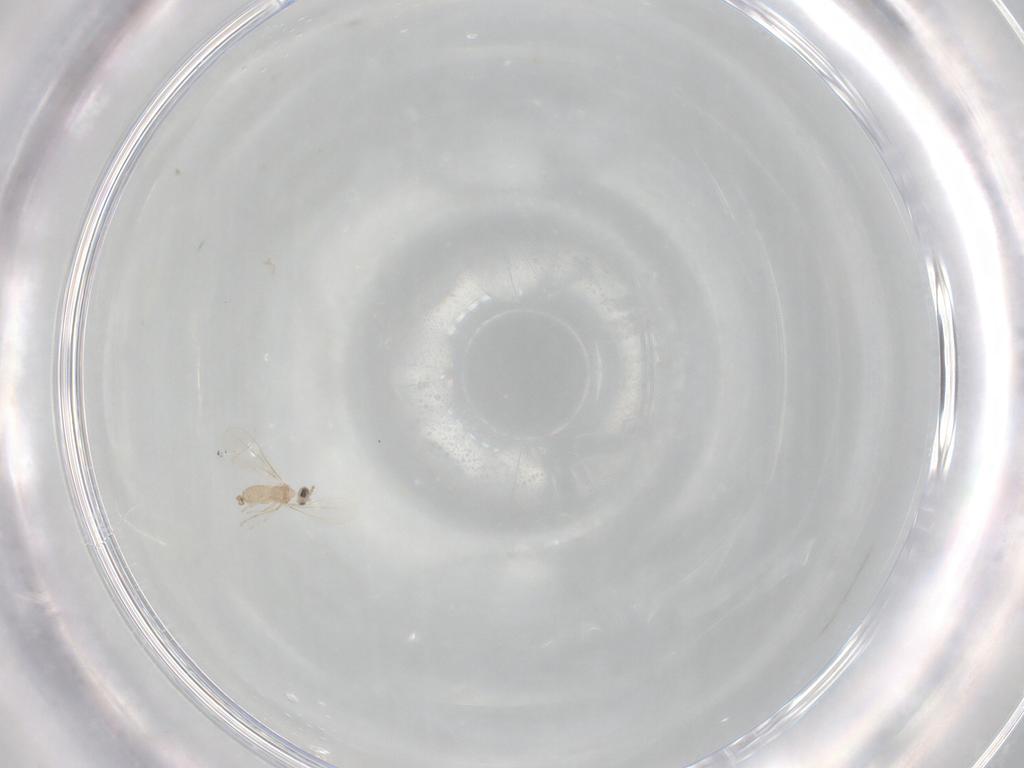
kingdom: Animalia
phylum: Arthropoda
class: Insecta
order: Diptera
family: Cecidomyiidae
